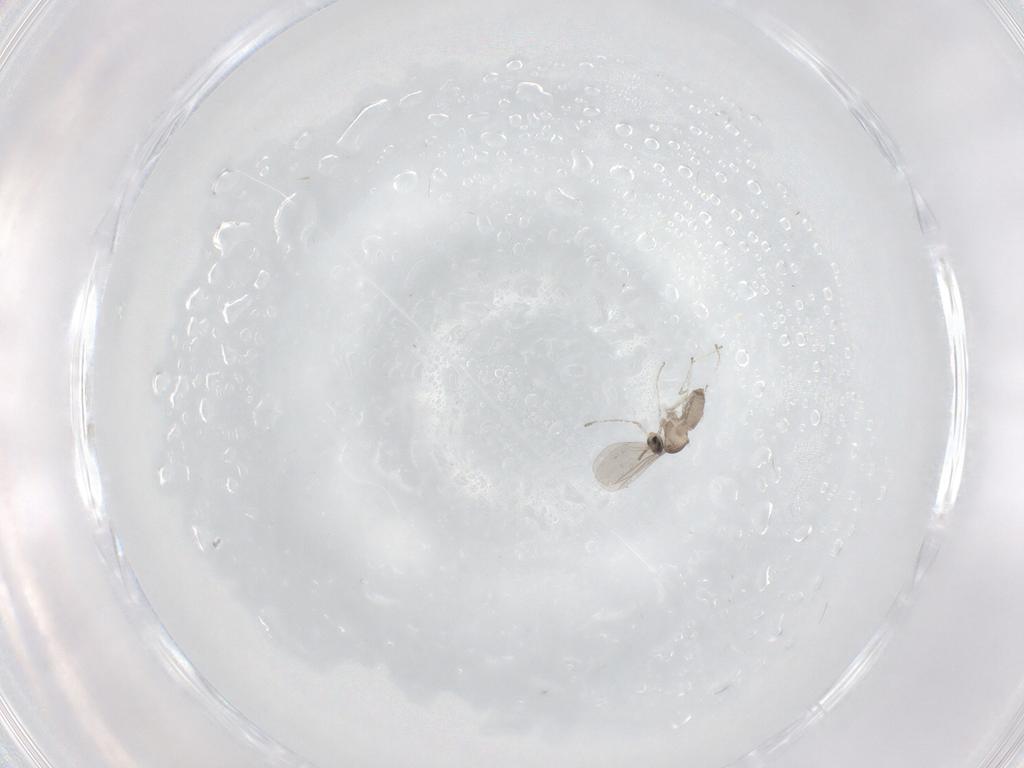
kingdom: Animalia
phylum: Arthropoda
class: Insecta
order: Diptera
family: Cecidomyiidae
